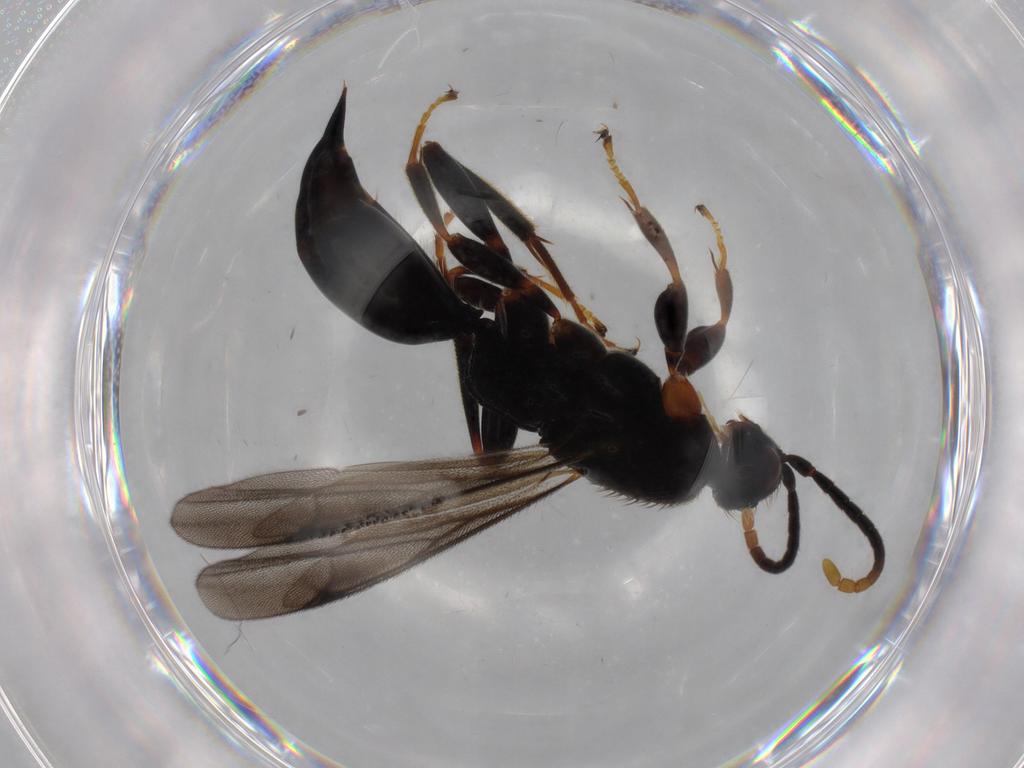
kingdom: Animalia
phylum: Arthropoda
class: Insecta
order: Hymenoptera
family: Proctotrupidae
